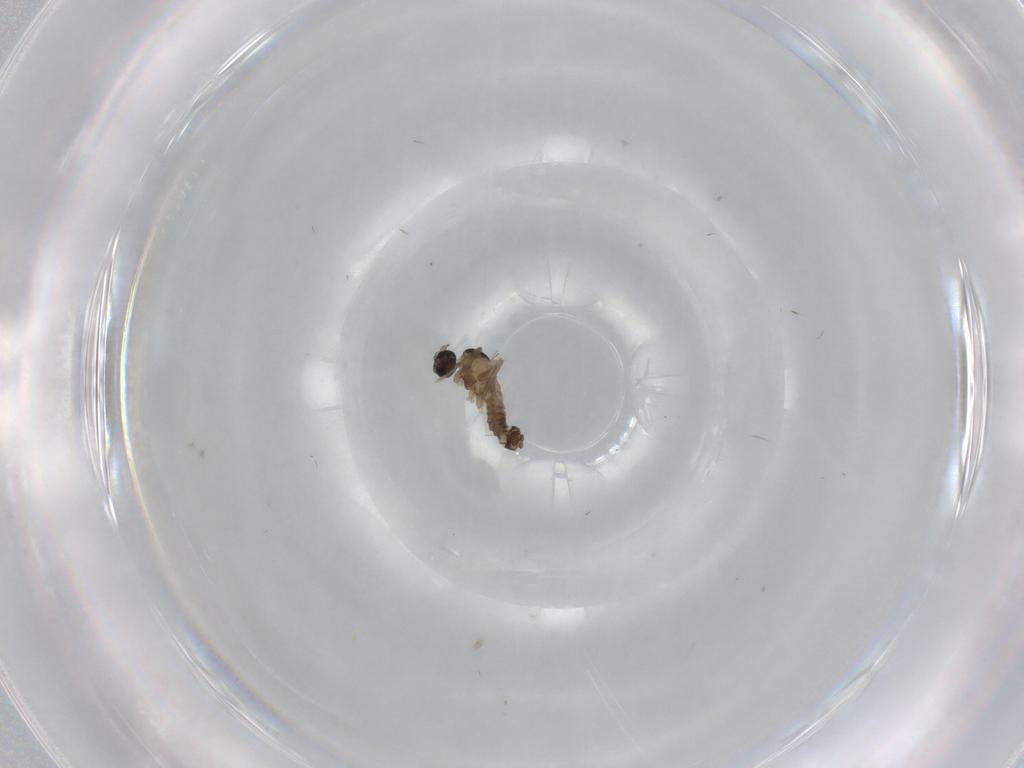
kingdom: Animalia
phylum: Arthropoda
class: Insecta
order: Diptera
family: Cecidomyiidae
